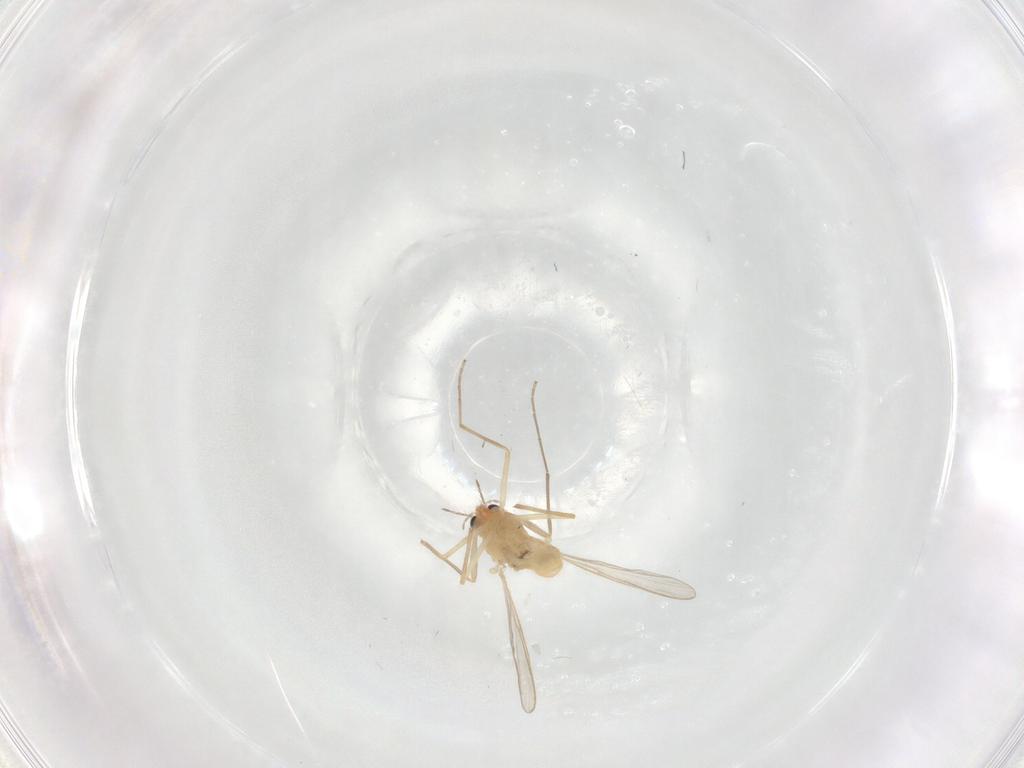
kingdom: Animalia
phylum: Arthropoda
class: Insecta
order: Diptera
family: Chironomidae
